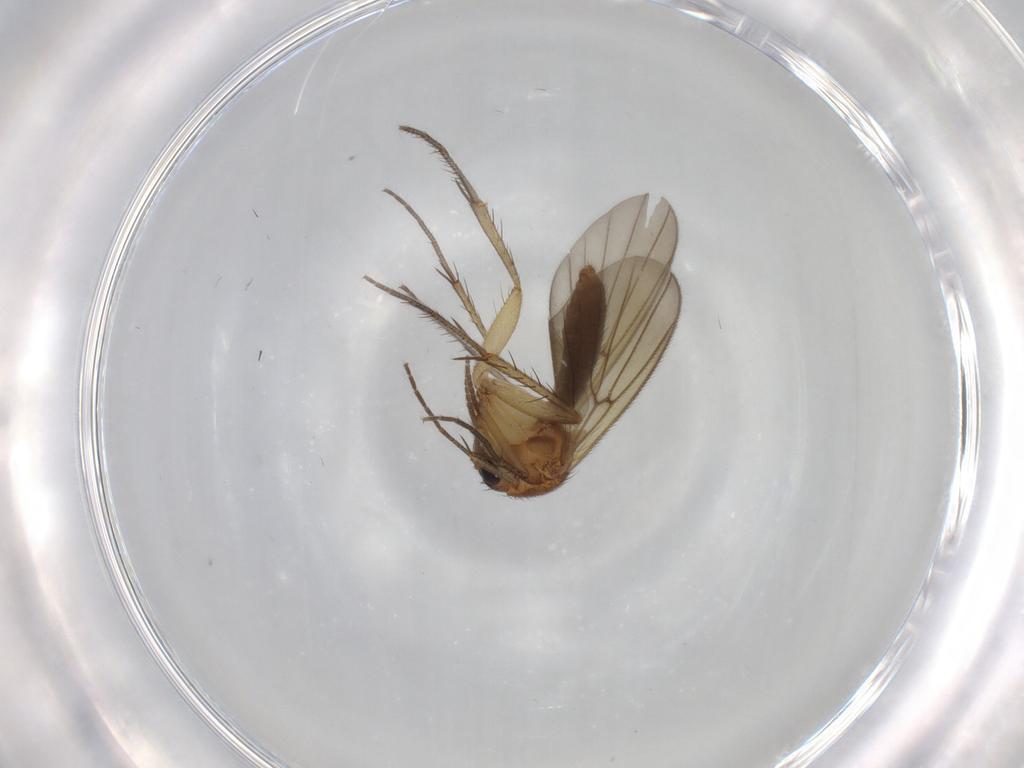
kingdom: Animalia
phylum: Arthropoda
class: Insecta
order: Diptera
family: Mycetophilidae
